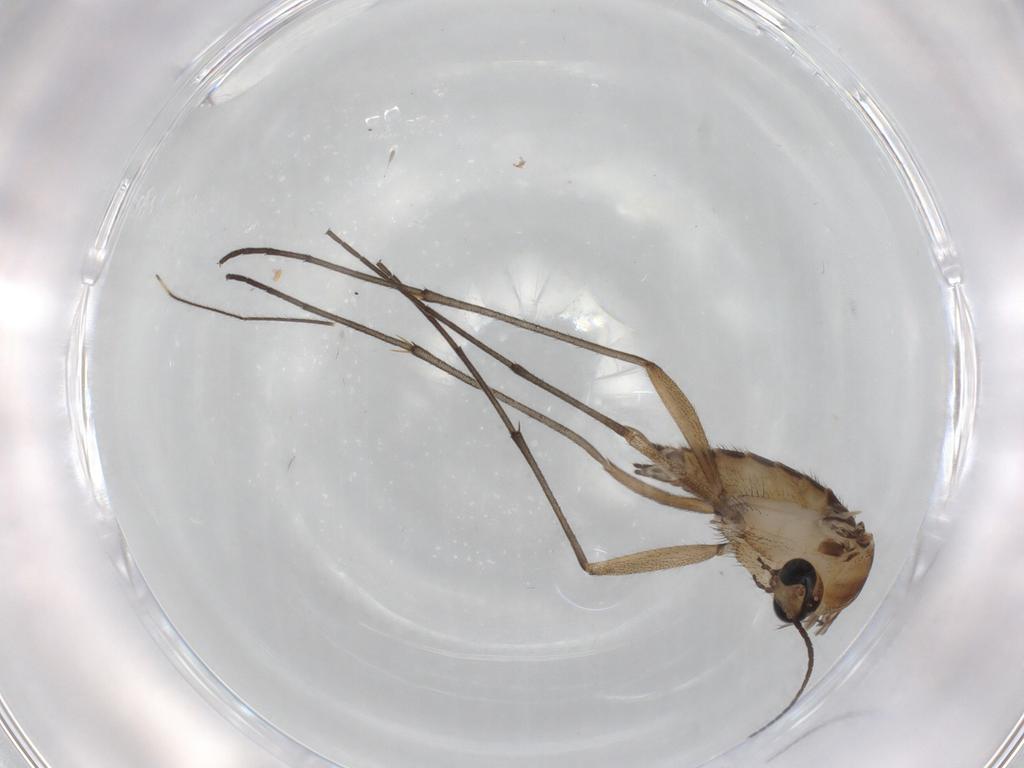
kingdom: Animalia
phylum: Arthropoda
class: Insecta
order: Diptera
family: Sciaridae
